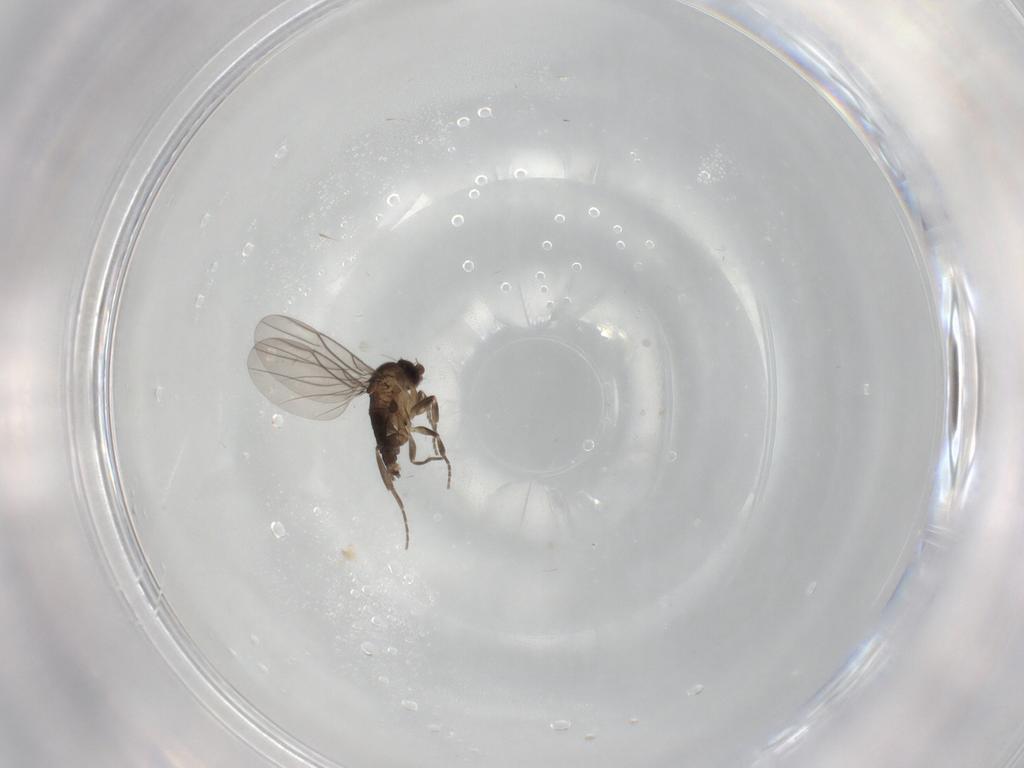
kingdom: Animalia
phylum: Arthropoda
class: Insecta
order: Diptera
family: Phoridae
